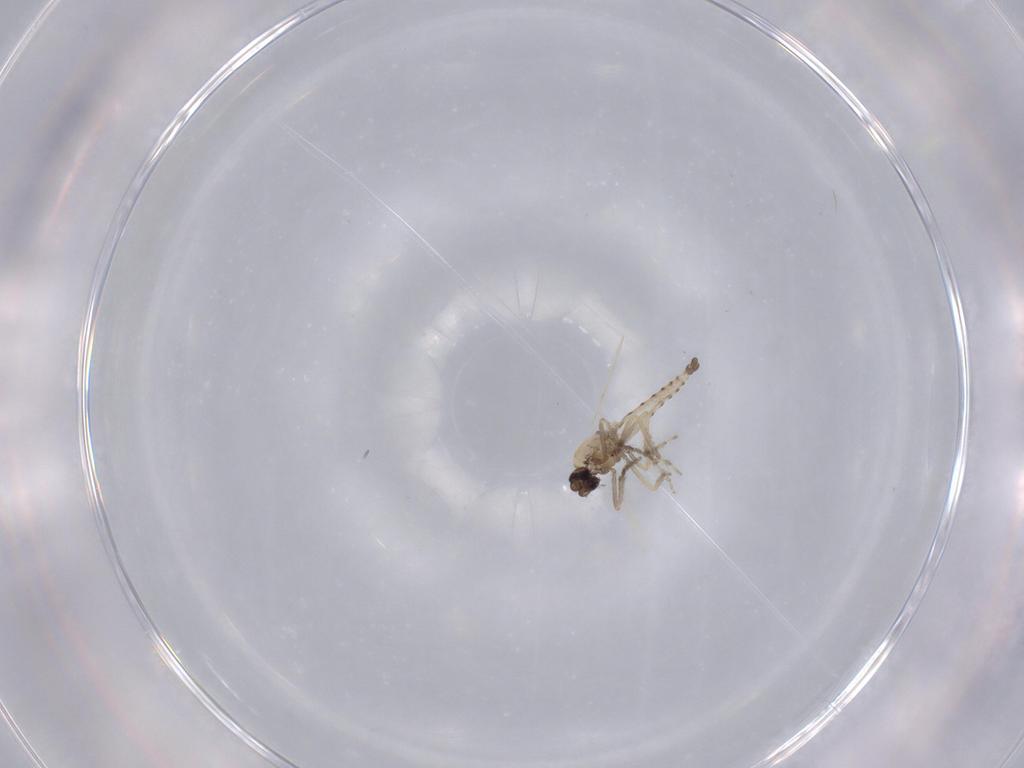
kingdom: Animalia
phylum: Arthropoda
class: Insecta
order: Diptera
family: Ceratopogonidae
